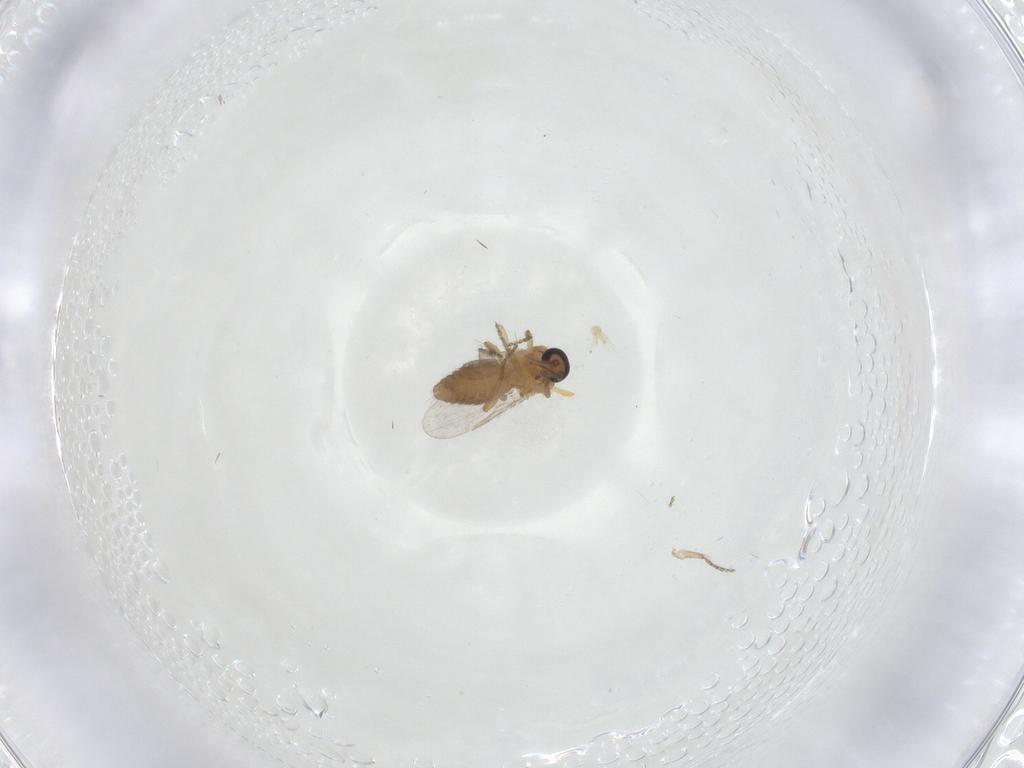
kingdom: Animalia
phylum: Arthropoda
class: Insecta
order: Diptera
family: Ceratopogonidae
